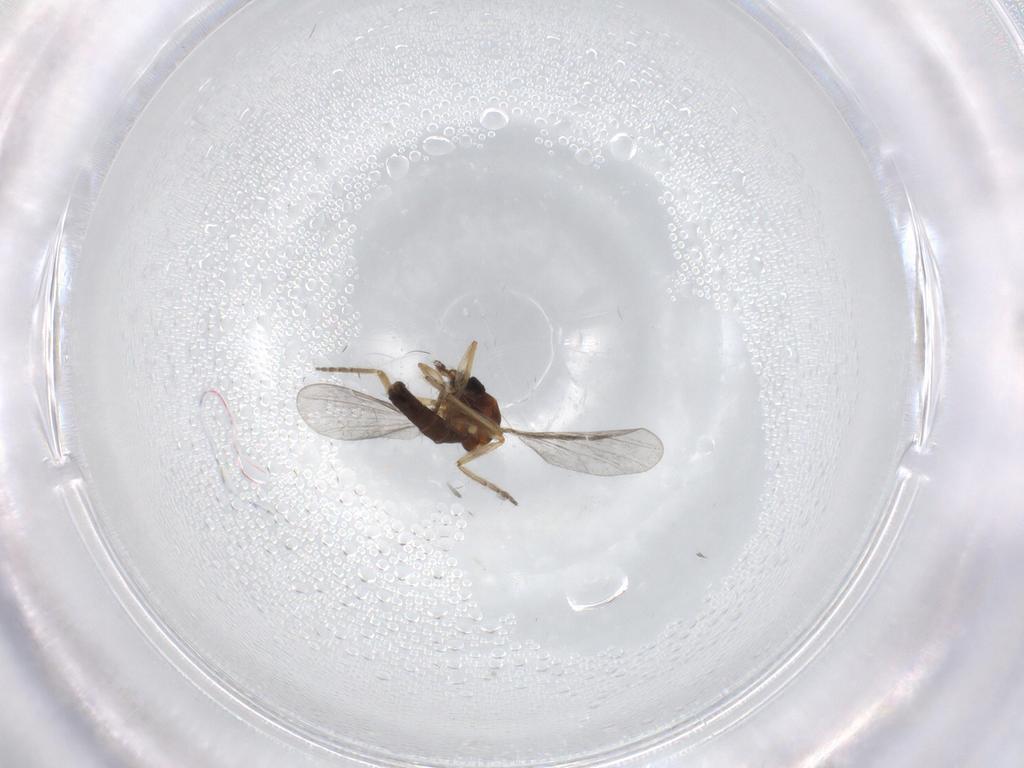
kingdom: Animalia
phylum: Arthropoda
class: Insecta
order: Diptera
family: Ceratopogonidae
